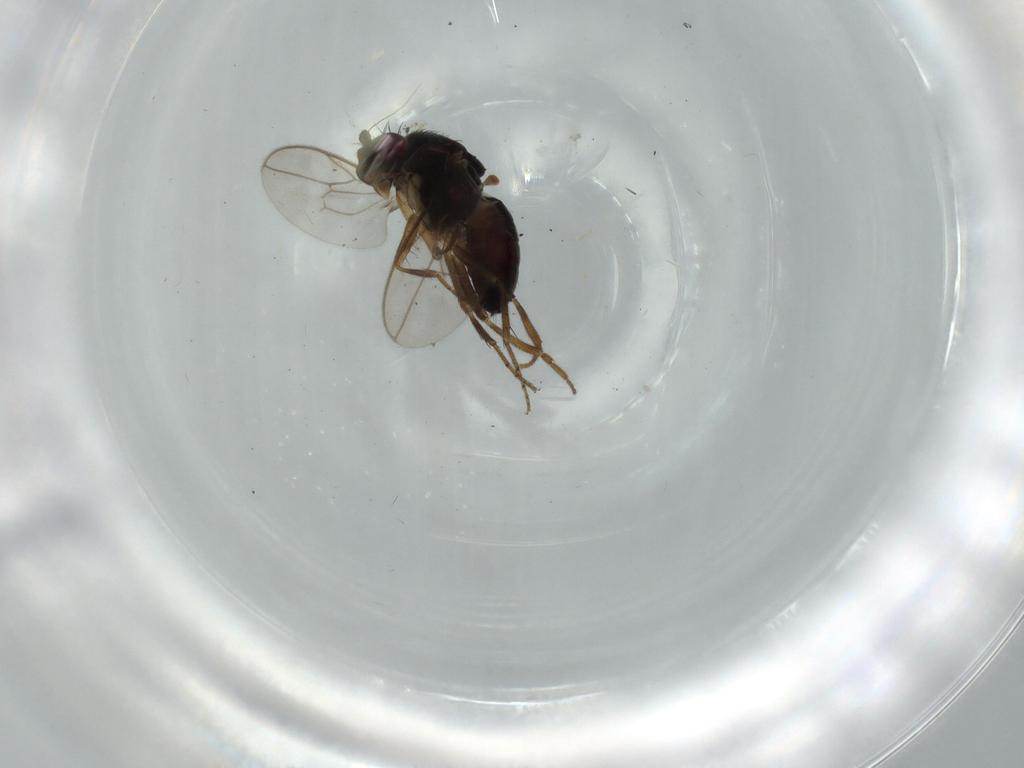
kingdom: Animalia
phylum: Arthropoda
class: Insecta
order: Diptera
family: Sphaeroceridae
